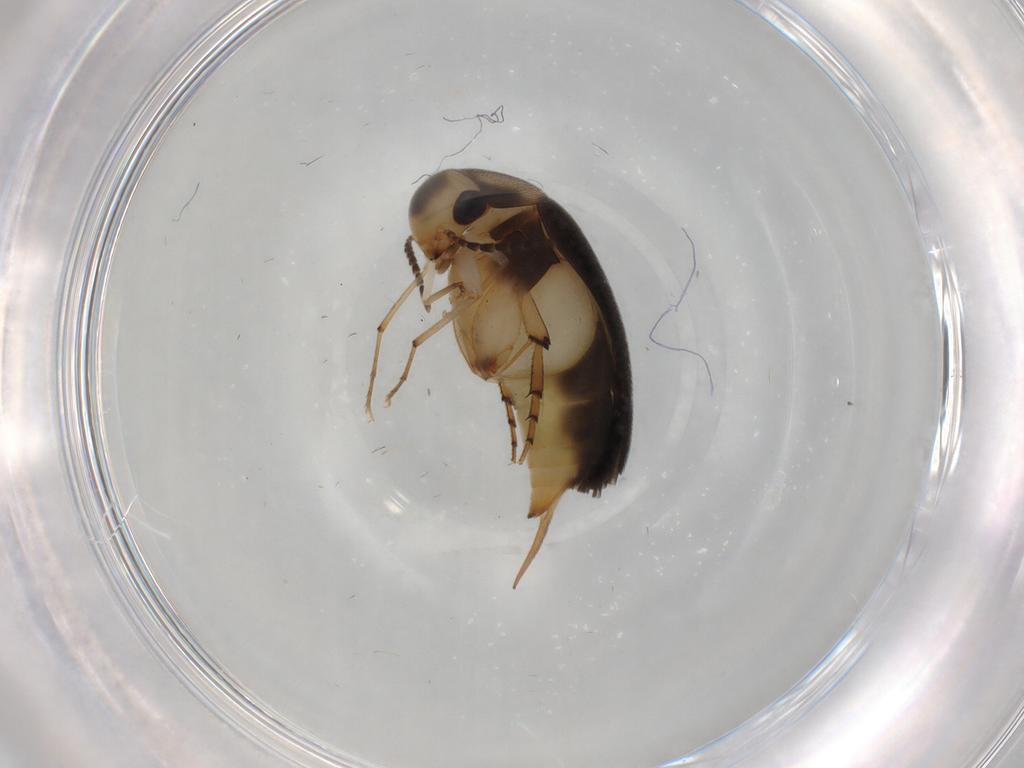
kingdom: Animalia
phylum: Arthropoda
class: Insecta
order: Coleoptera
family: Mordellidae
